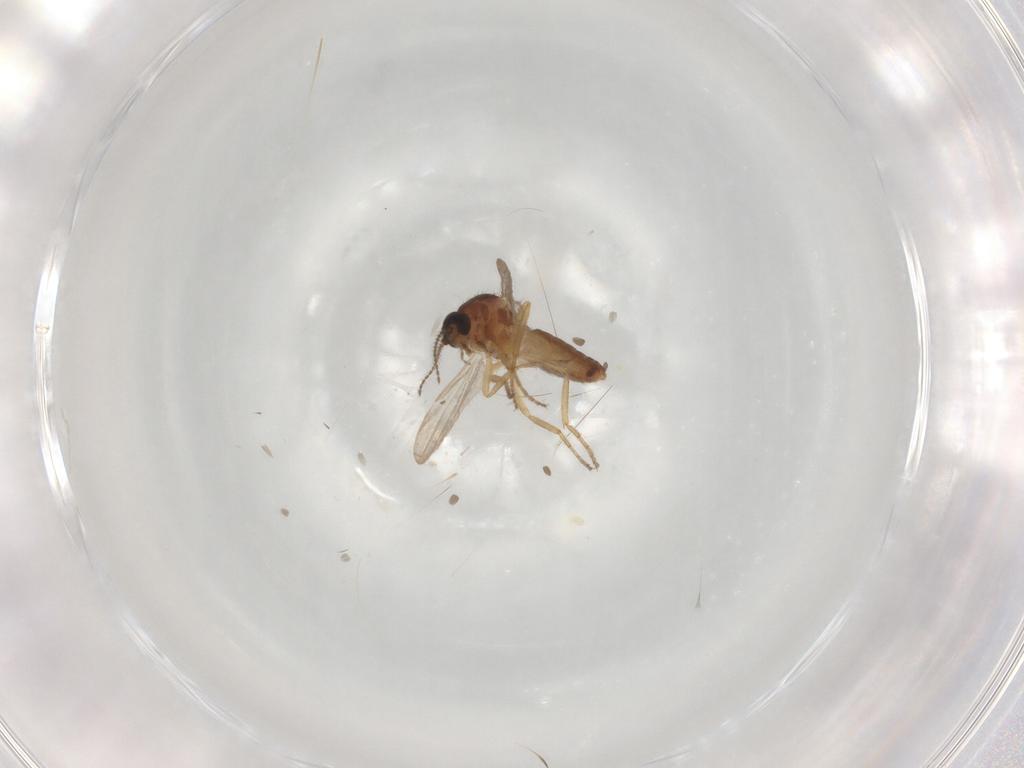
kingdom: Animalia
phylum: Arthropoda
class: Insecta
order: Diptera
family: Ceratopogonidae
